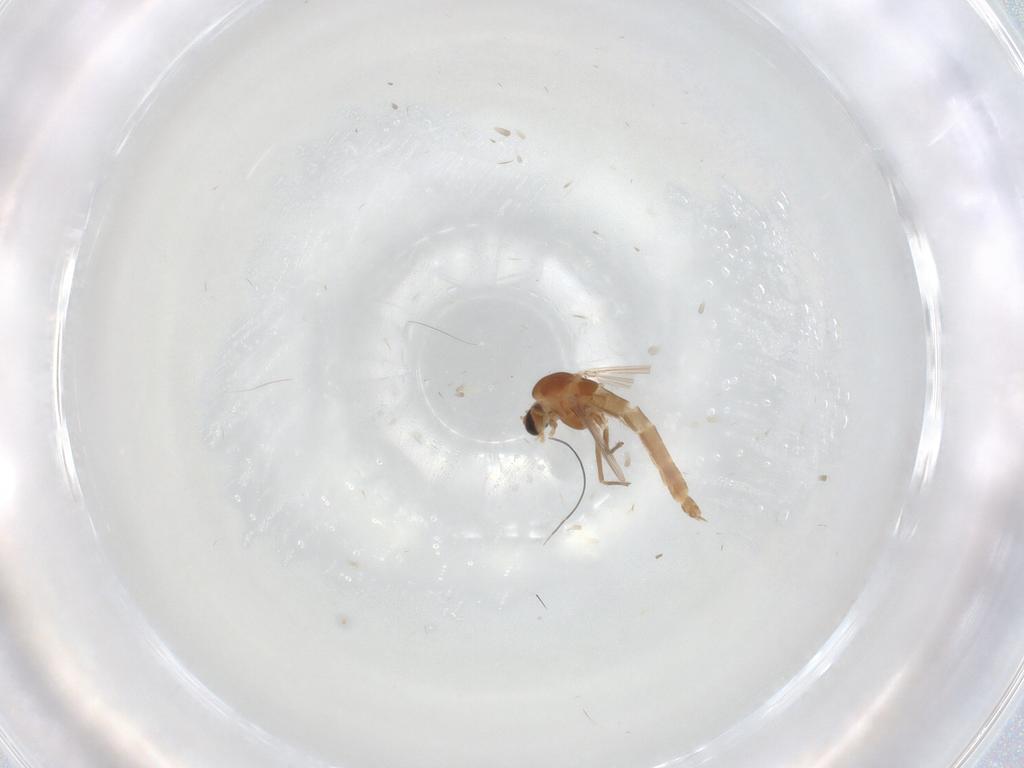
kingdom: Animalia
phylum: Arthropoda
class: Insecta
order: Diptera
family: Chironomidae
